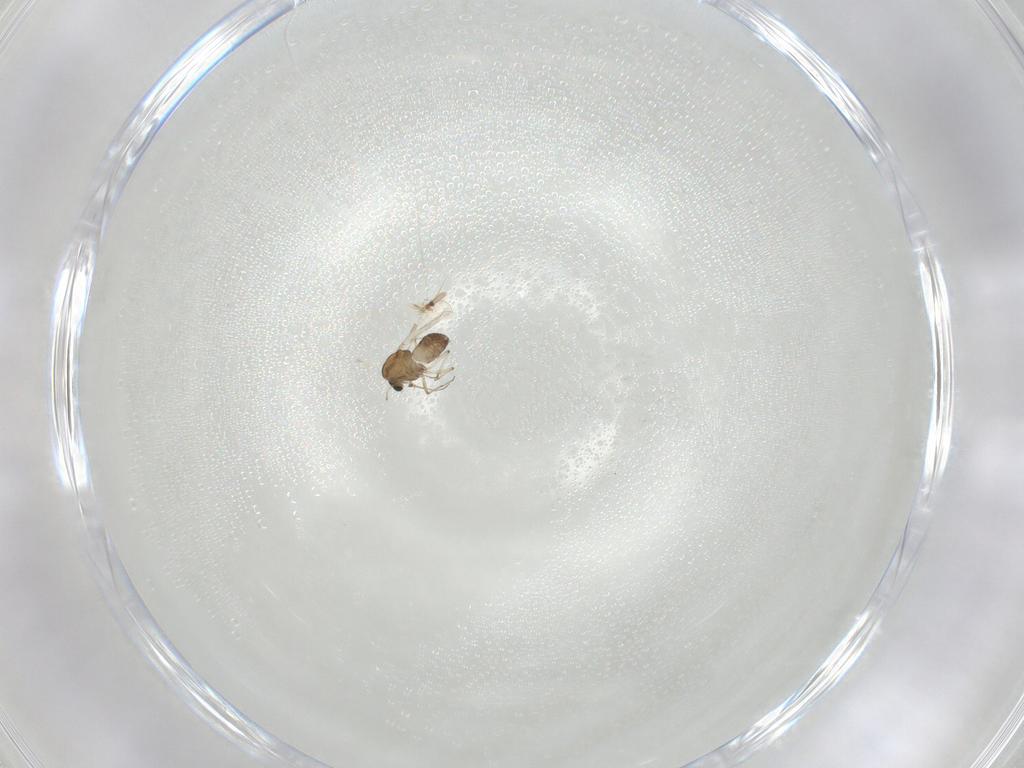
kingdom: Animalia
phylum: Arthropoda
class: Insecta
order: Diptera
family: Chironomidae
